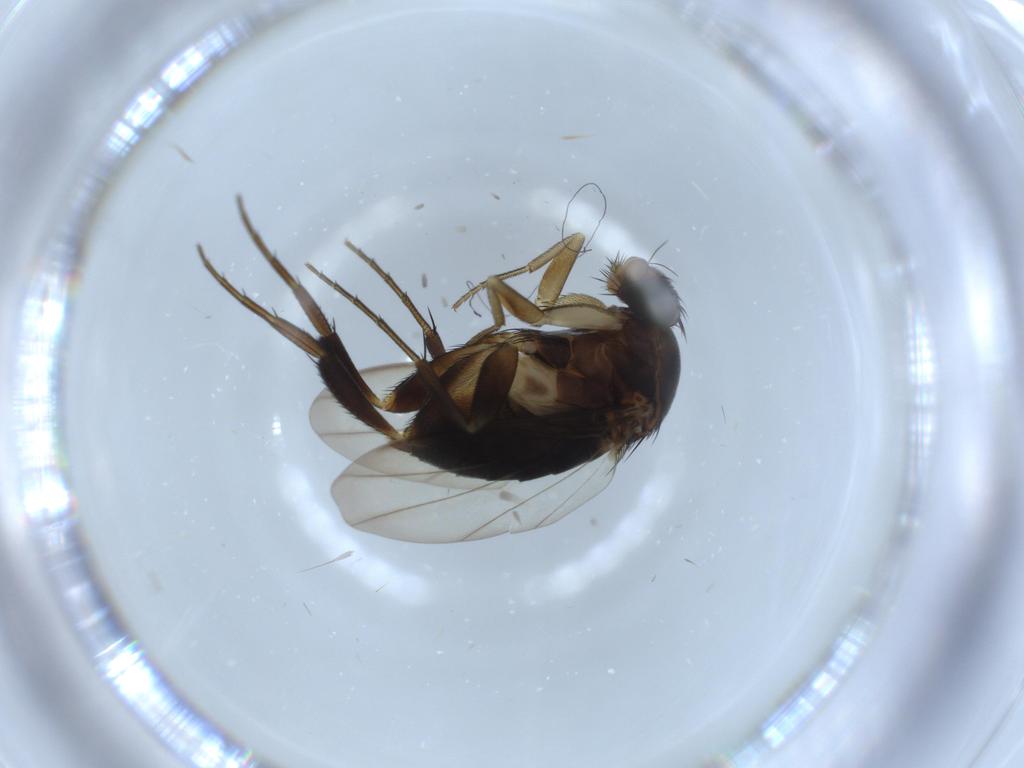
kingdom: Animalia
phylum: Arthropoda
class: Insecta
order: Diptera
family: Phoridae
